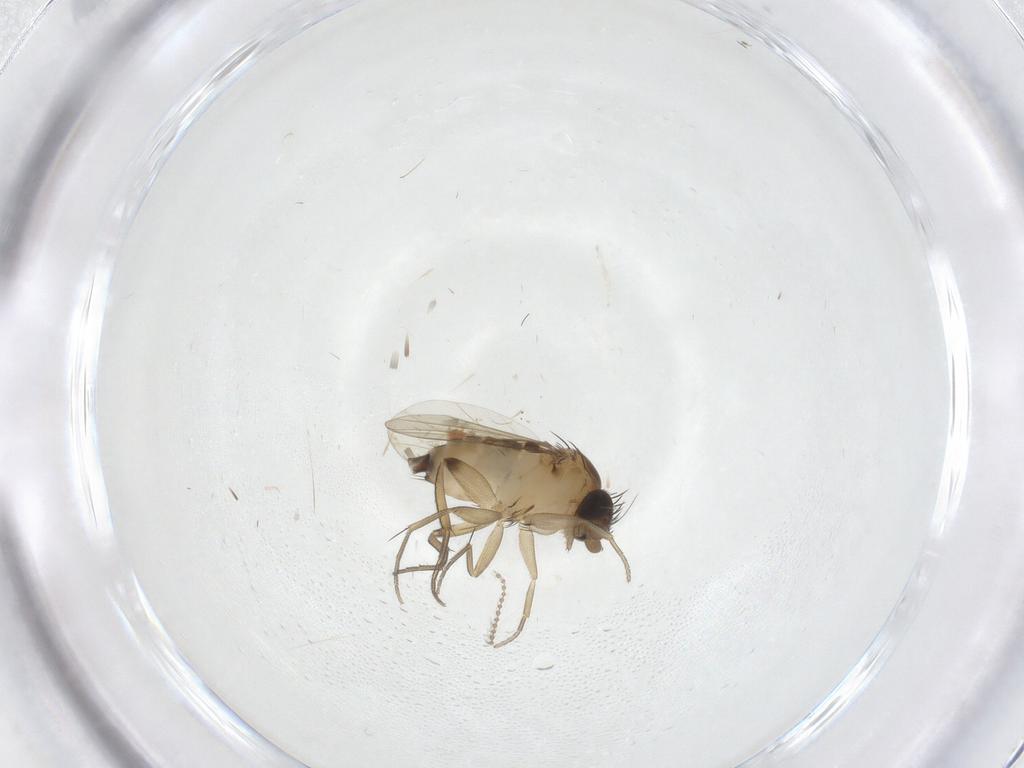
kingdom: Animalia
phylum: Arthropoda
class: Insecta
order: Diptera
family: Cecidomyiidae
